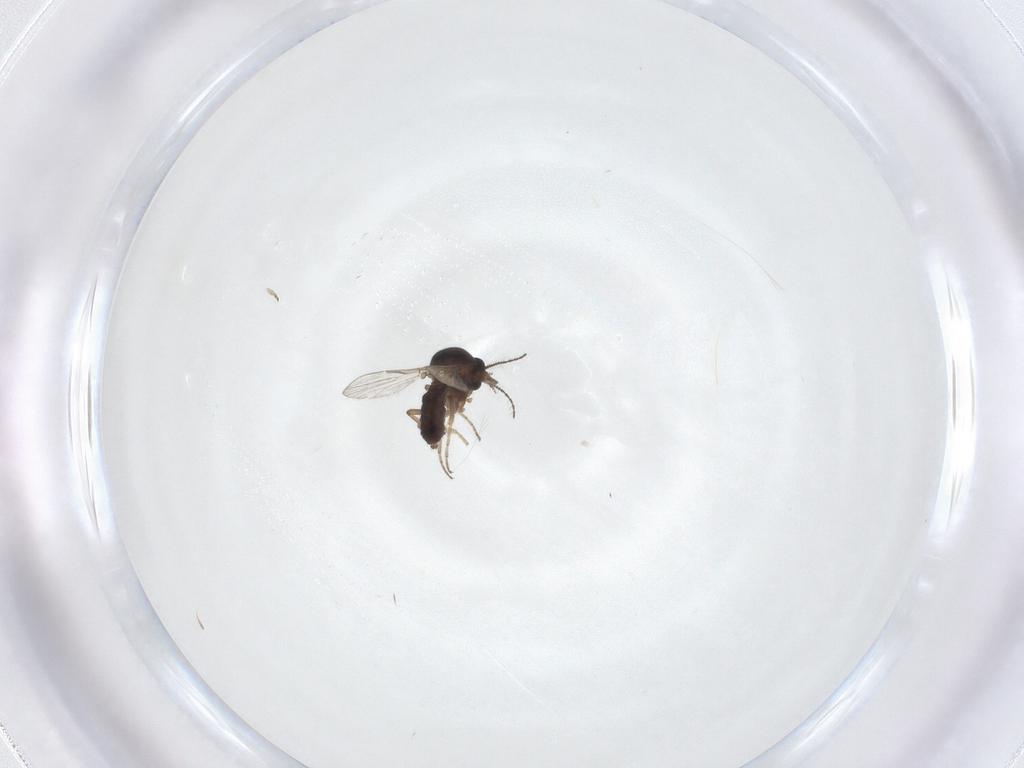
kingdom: Animalia
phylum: Arthropoda
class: Insecta
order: Diptera
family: Ceratopogonidae
